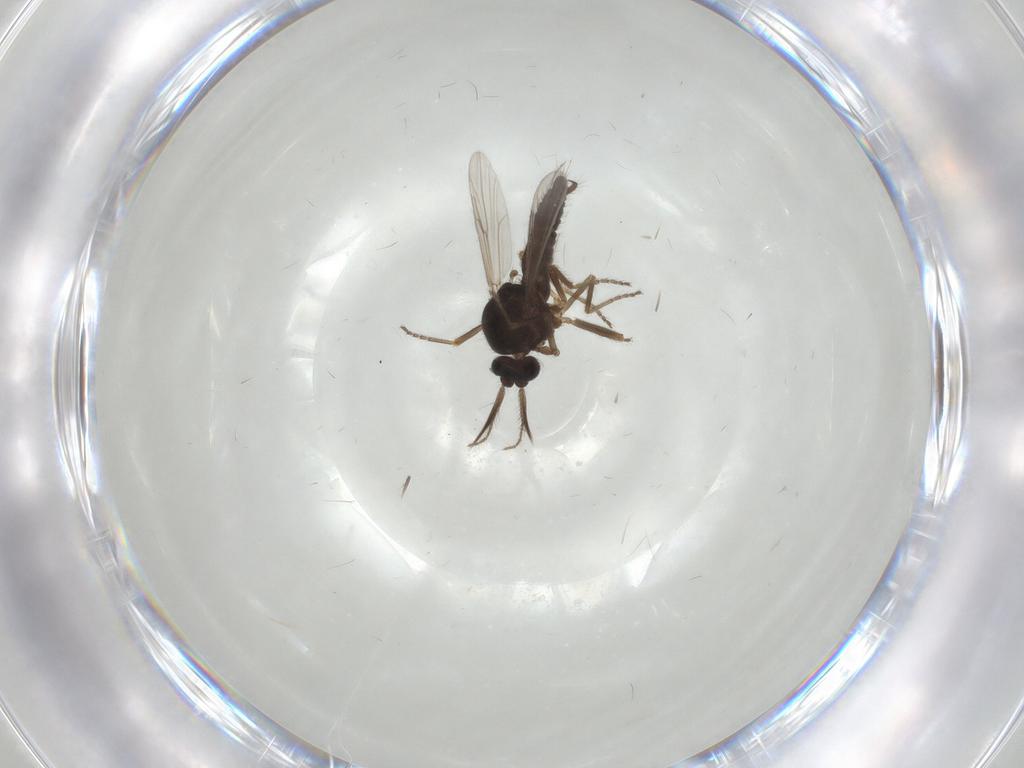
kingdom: Animalia
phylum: Arthropoda
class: Insecta
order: Diptera
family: Ceratopogonidae
